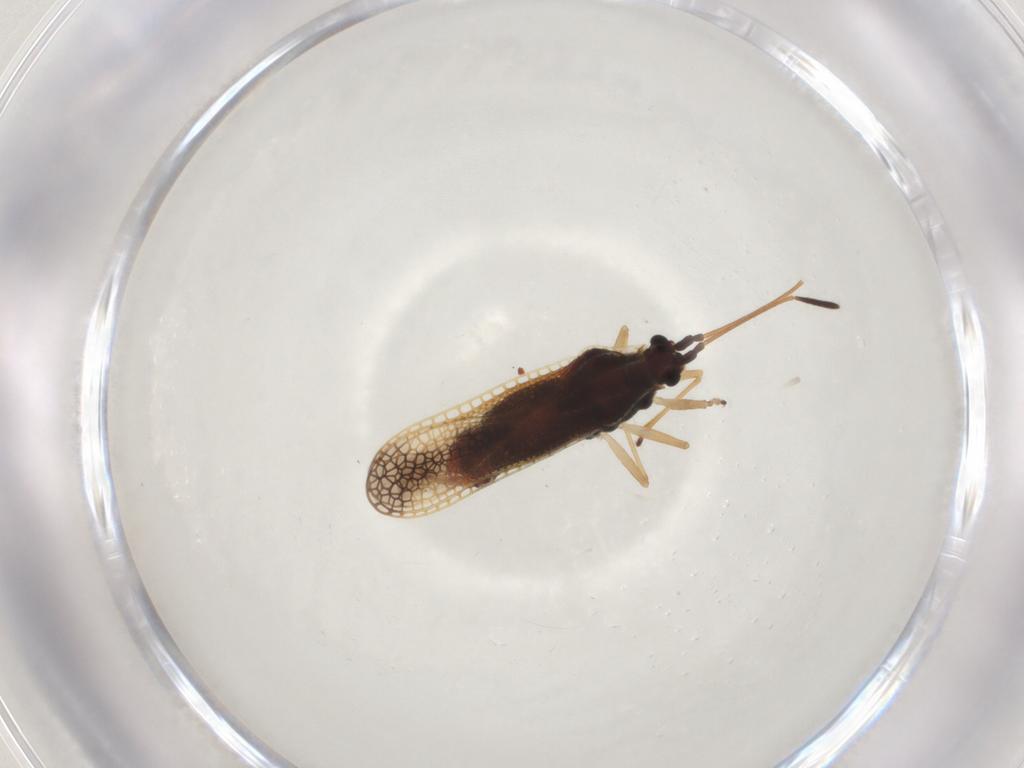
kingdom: Animalia
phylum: Arthropoda
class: Insecta
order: Hemiptera
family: Tingidae
